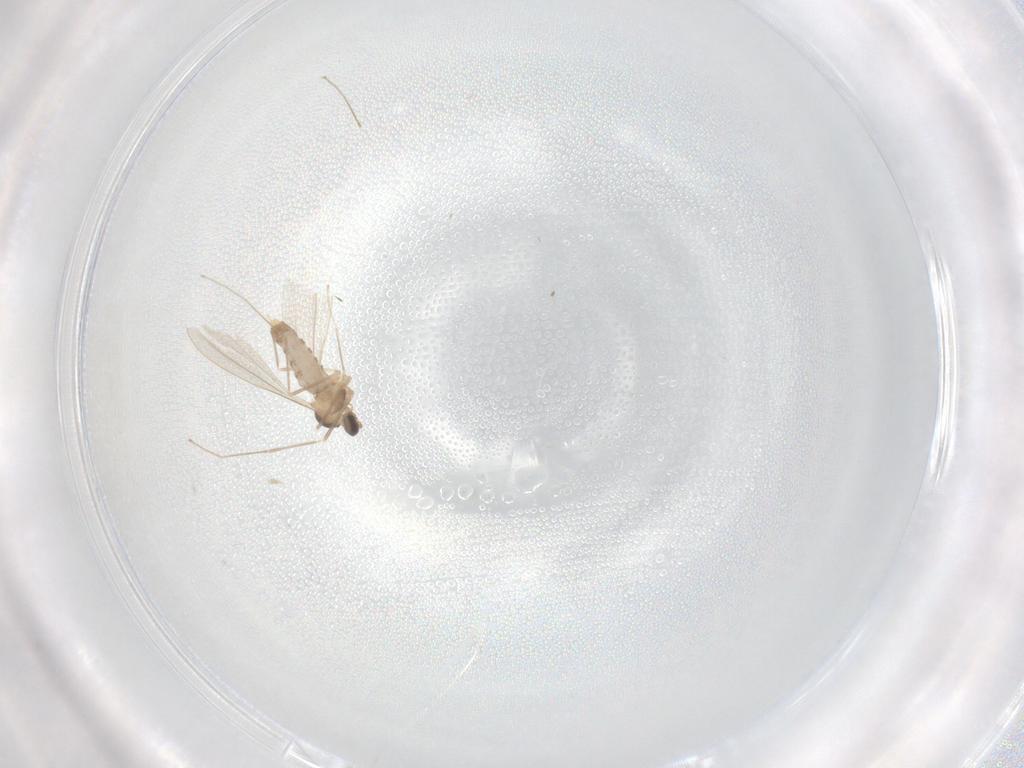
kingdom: Animalia
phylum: Arthropoda
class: Insecta
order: Diptera
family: Cecidomyiidae
